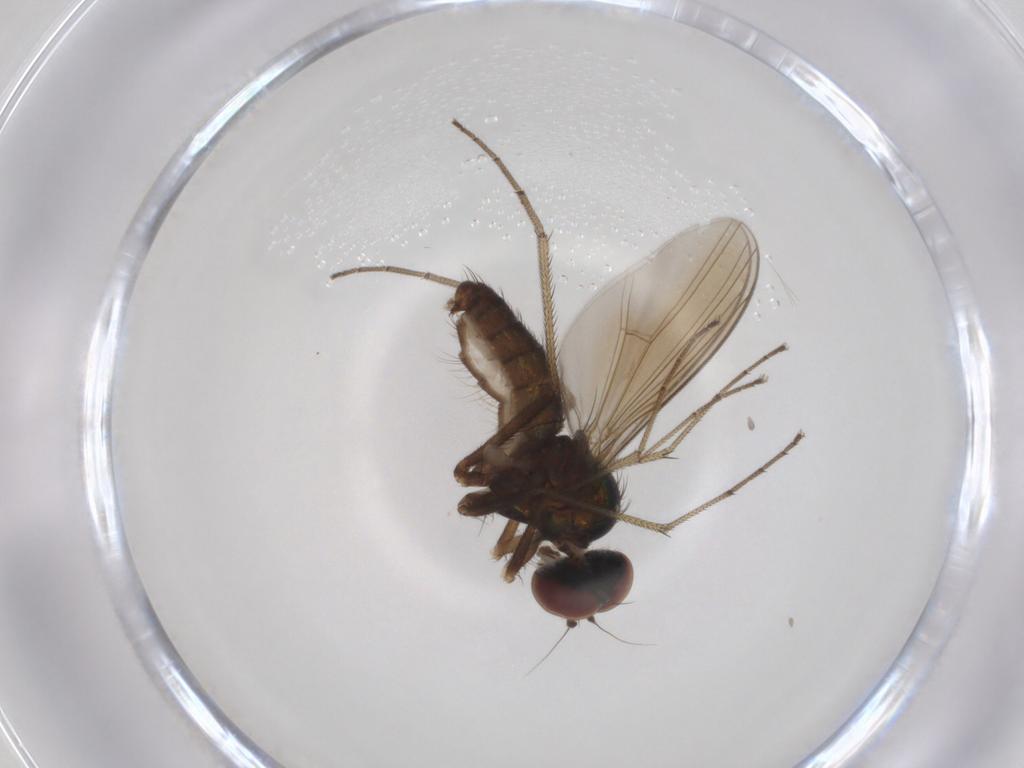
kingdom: Animalia
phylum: Arthropoda
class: Insecta
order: Diptera
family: Dolichopodidae
